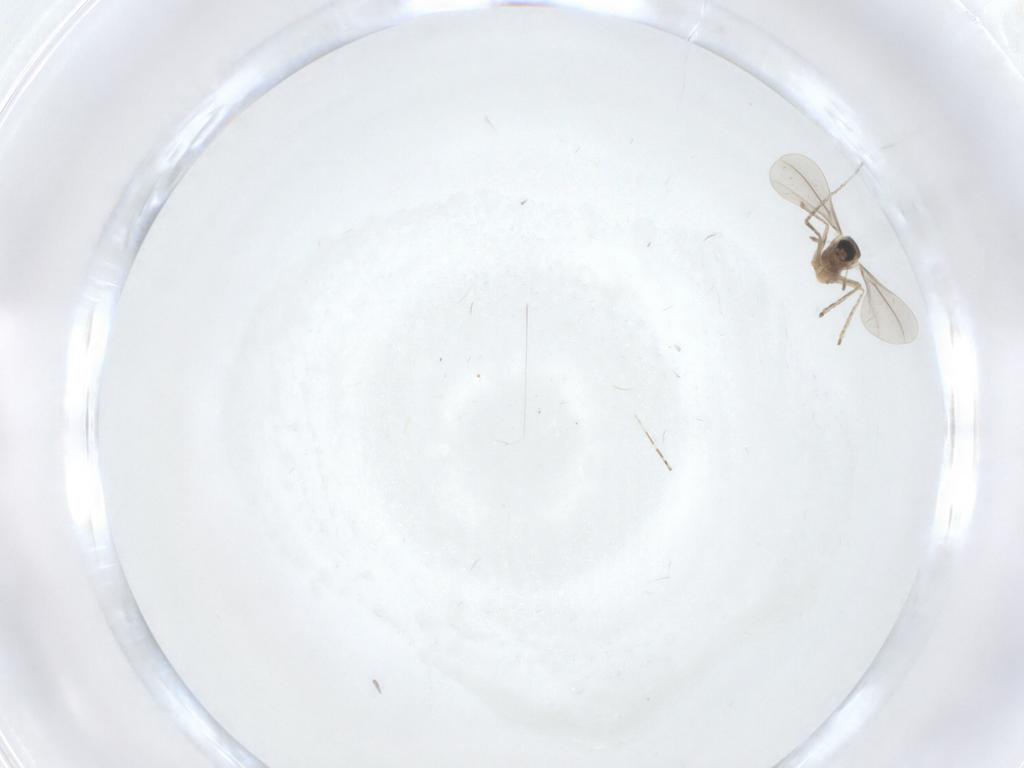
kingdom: Animalia
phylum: Arthropoda
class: Insecta
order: Diptera
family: Cecidomyiidae
